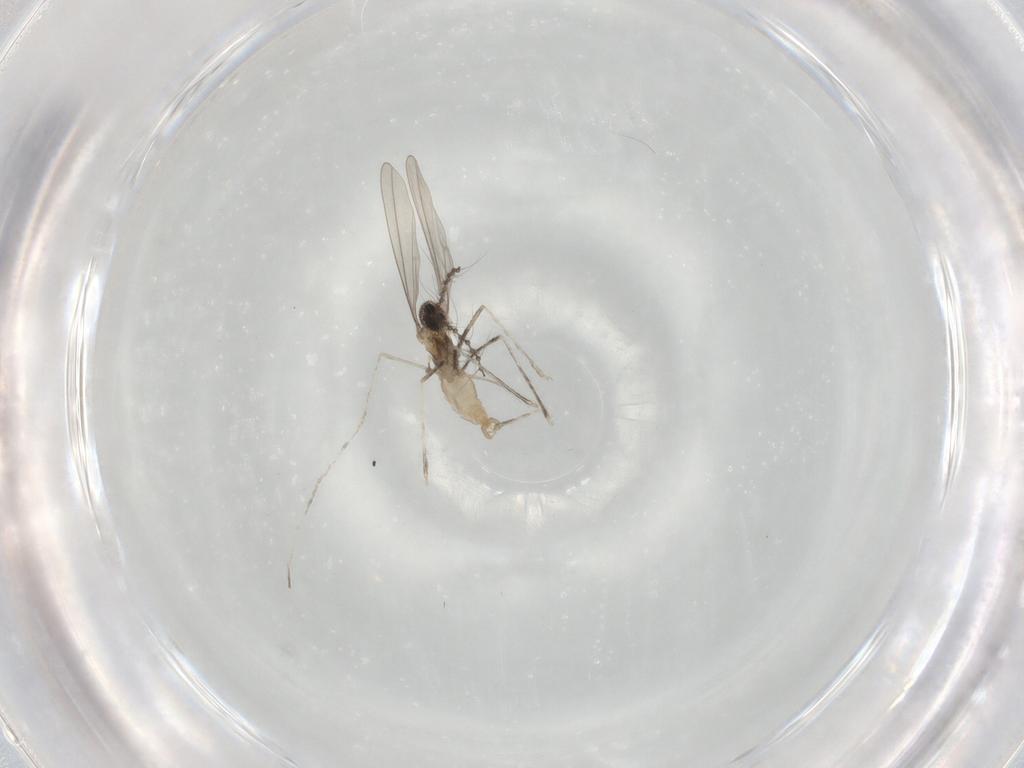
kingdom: Animalia
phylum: Arthropoda
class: Insecta
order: Diptera
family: Cecidomyiidae
